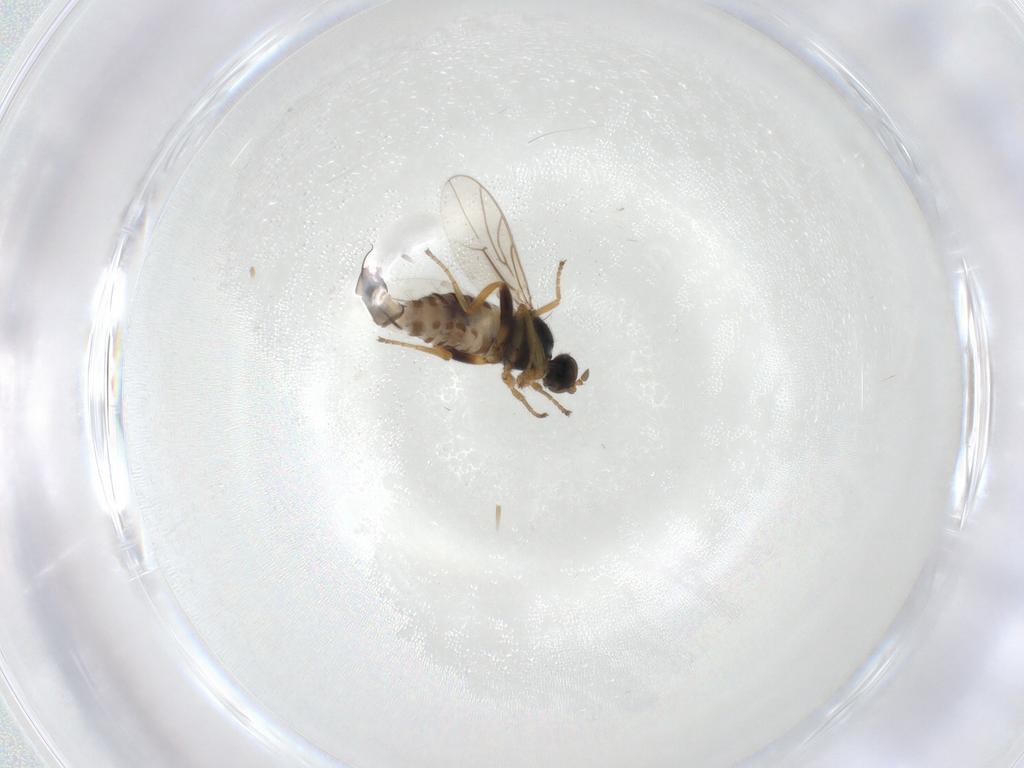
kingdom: Animalia
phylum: Arthropoda
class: Insecta
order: Diptera
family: Hybotidae
